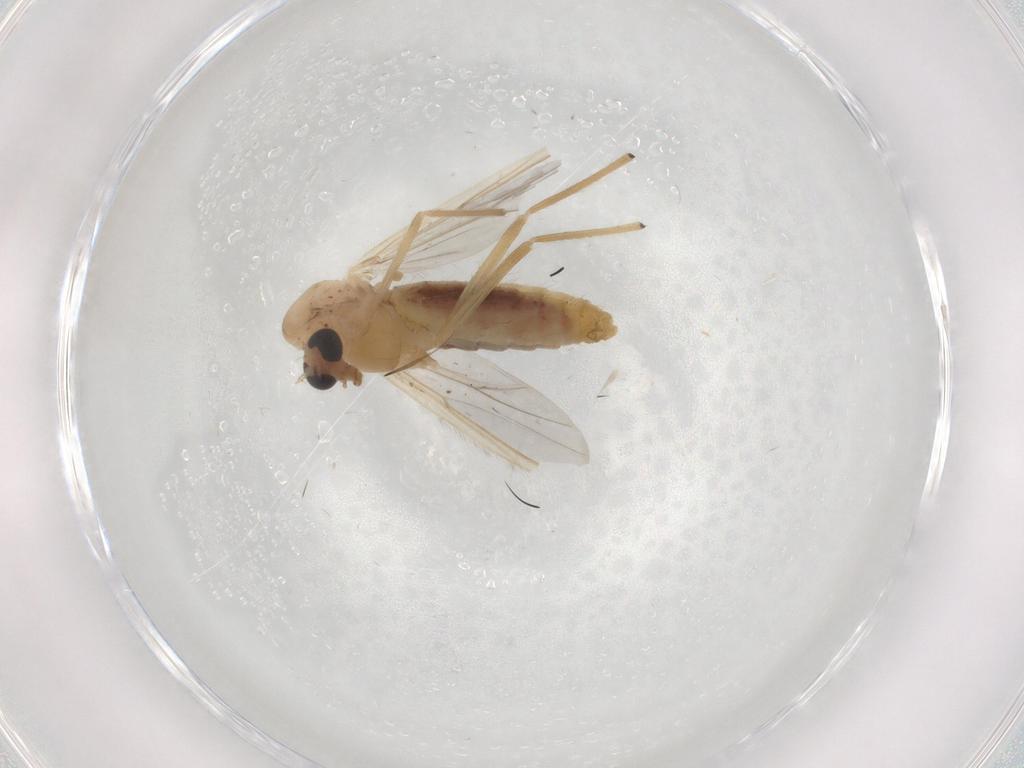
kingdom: Animalia
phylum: Arthropoda
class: Insecta
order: Diptera
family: Chironomidae
